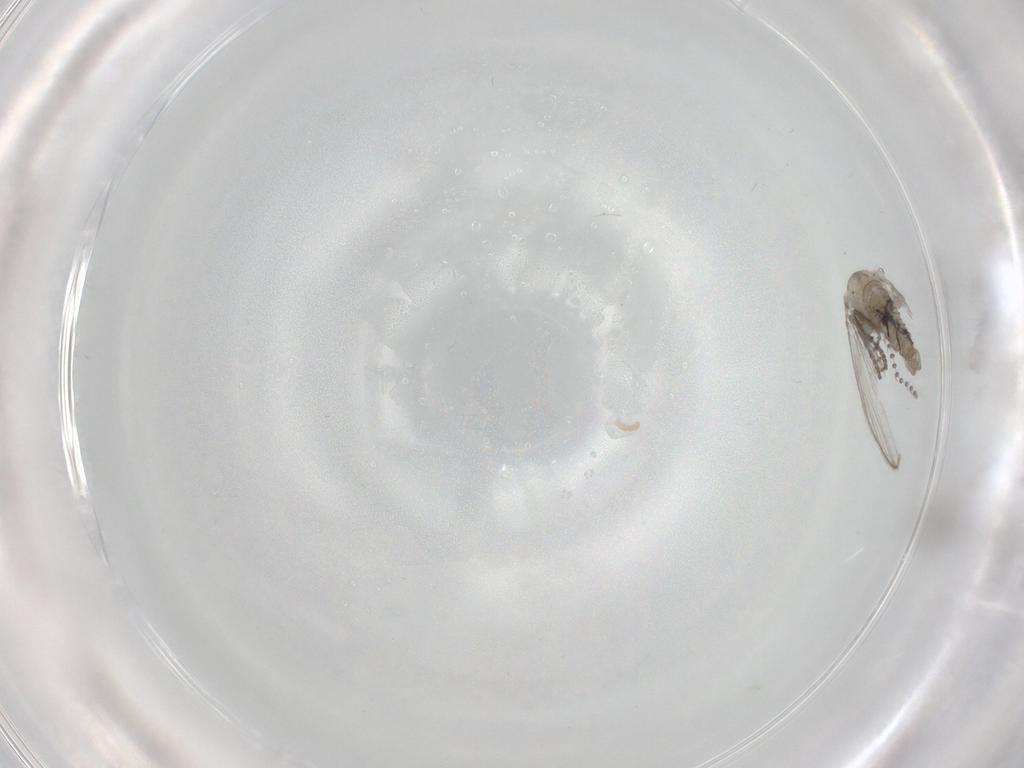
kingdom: Animalia
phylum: Arthropoda
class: Insecta
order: Diptera
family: Psychodidae
